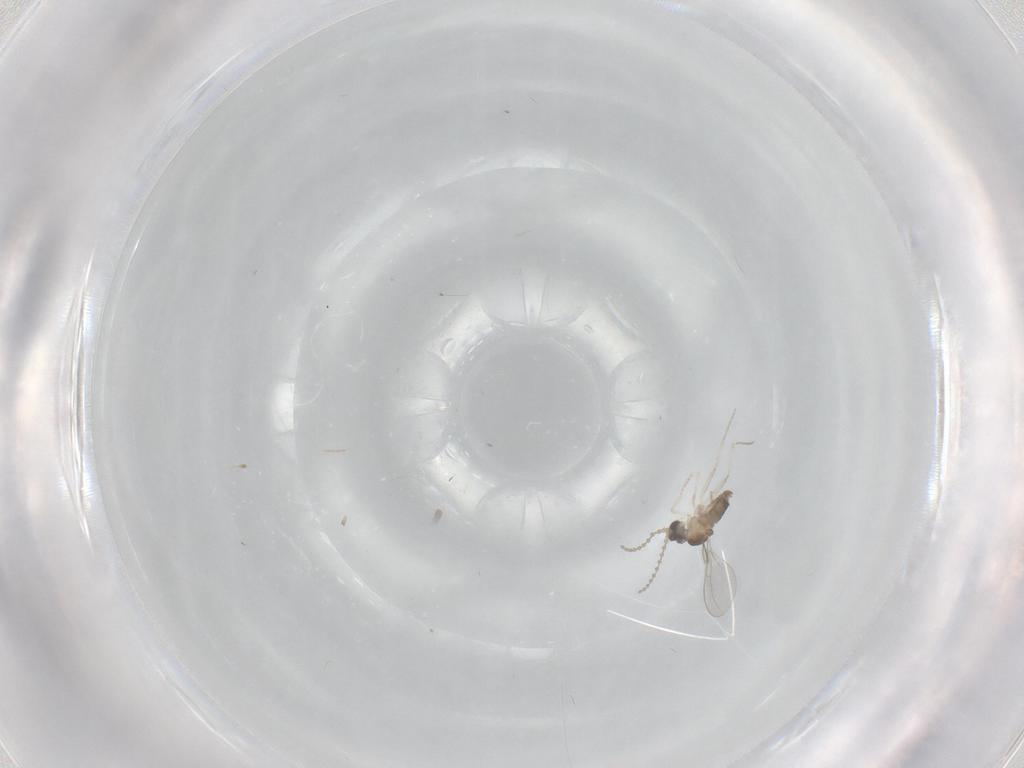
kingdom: Animalia
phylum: Arthropoda
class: Insecta
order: Diptera
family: Cecidomyiidae
